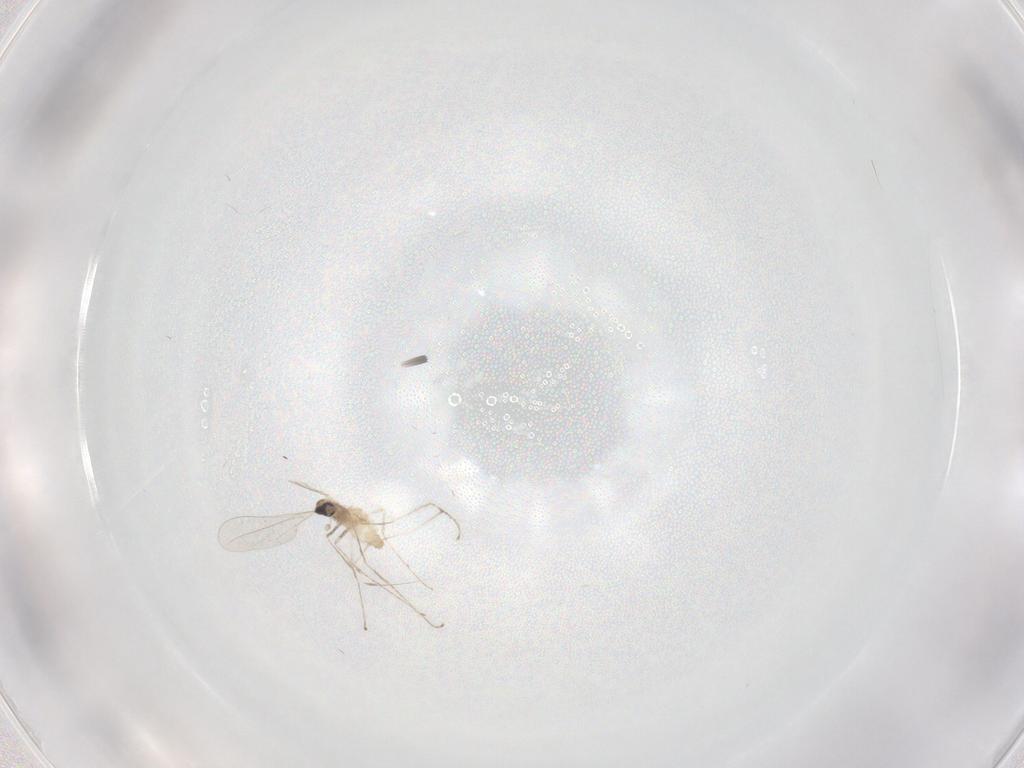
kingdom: Animalia
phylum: Arthropoda
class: Insecta
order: Diptera
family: Cecidomyiidae
